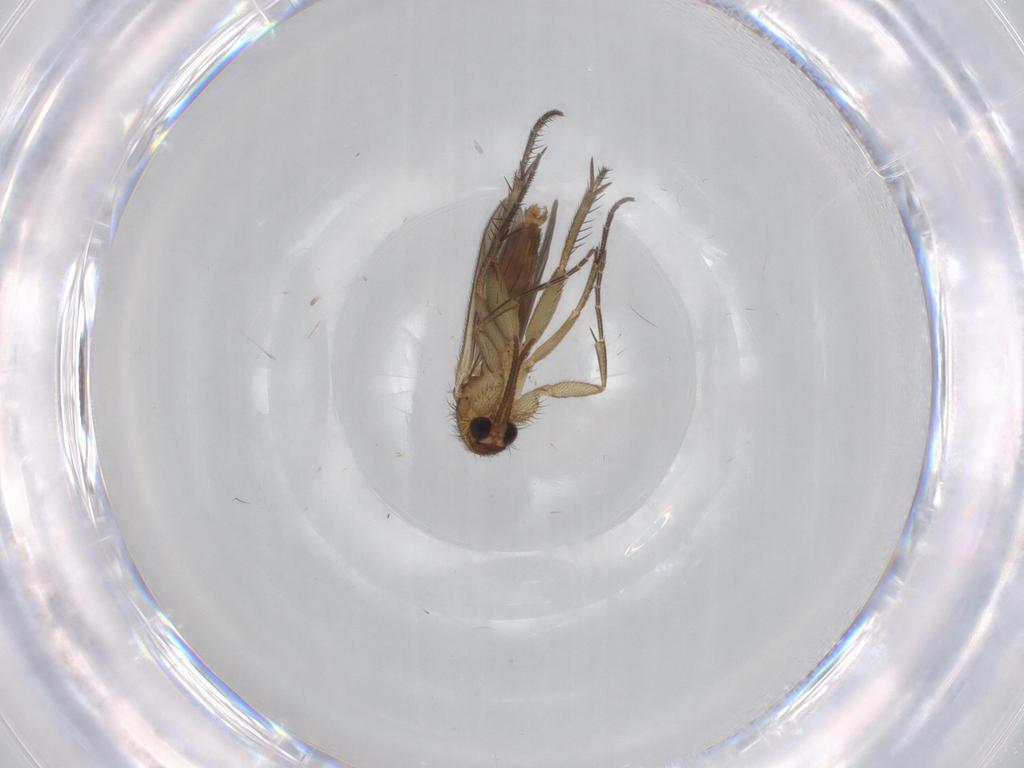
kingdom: Animalia
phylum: Arthropoda
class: Insecta
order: Diptera
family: Mycetophilidae
